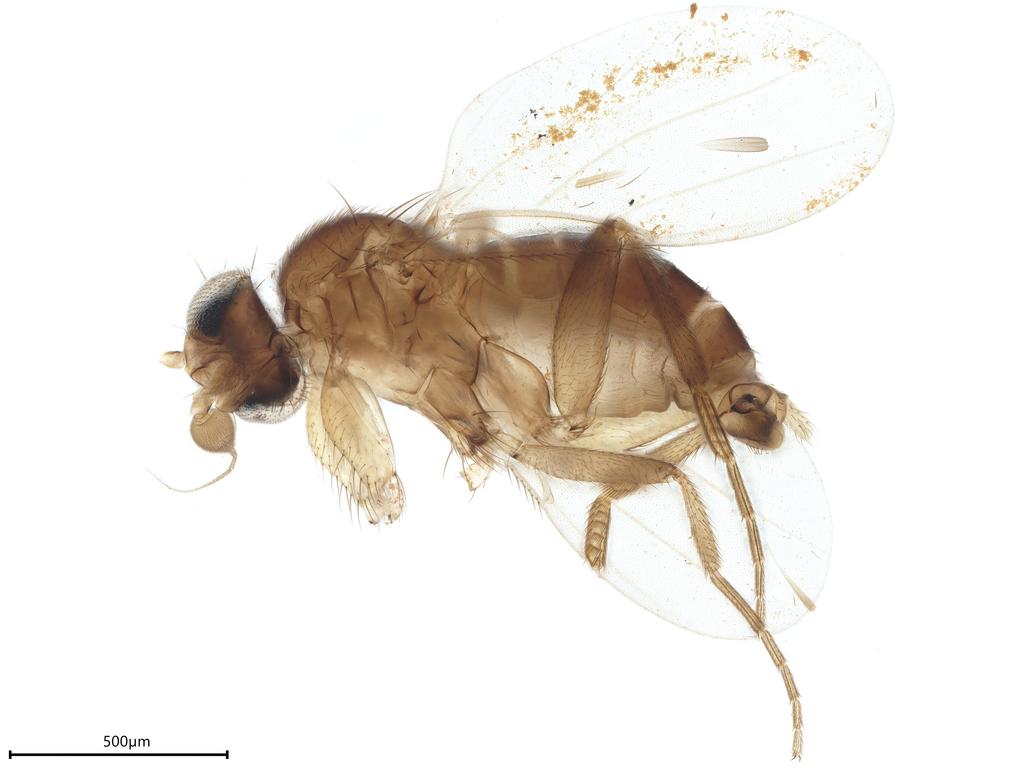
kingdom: Animalia
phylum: Arthropoda
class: Insecta
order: Diptera
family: Phoridae
